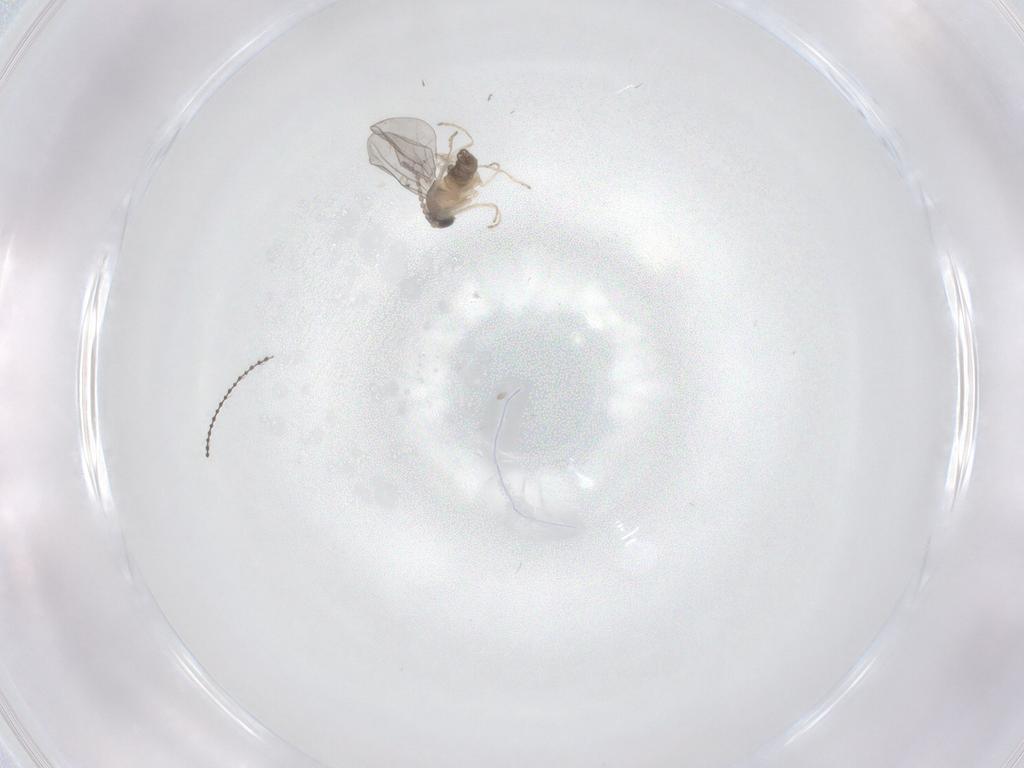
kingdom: Animalia
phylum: Arthropoda
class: Insecta
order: Diptera
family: Cecidomyiidae
